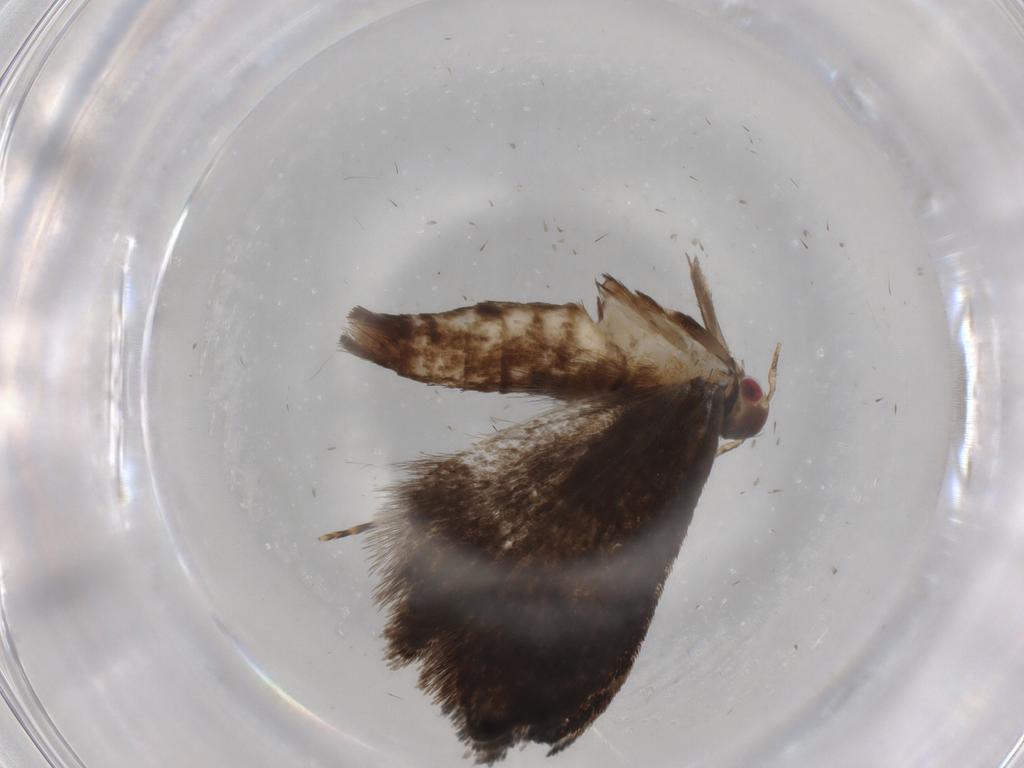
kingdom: Animalia
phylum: Arthropoda
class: Insecta
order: Lepidoptera
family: Gelechiidae
